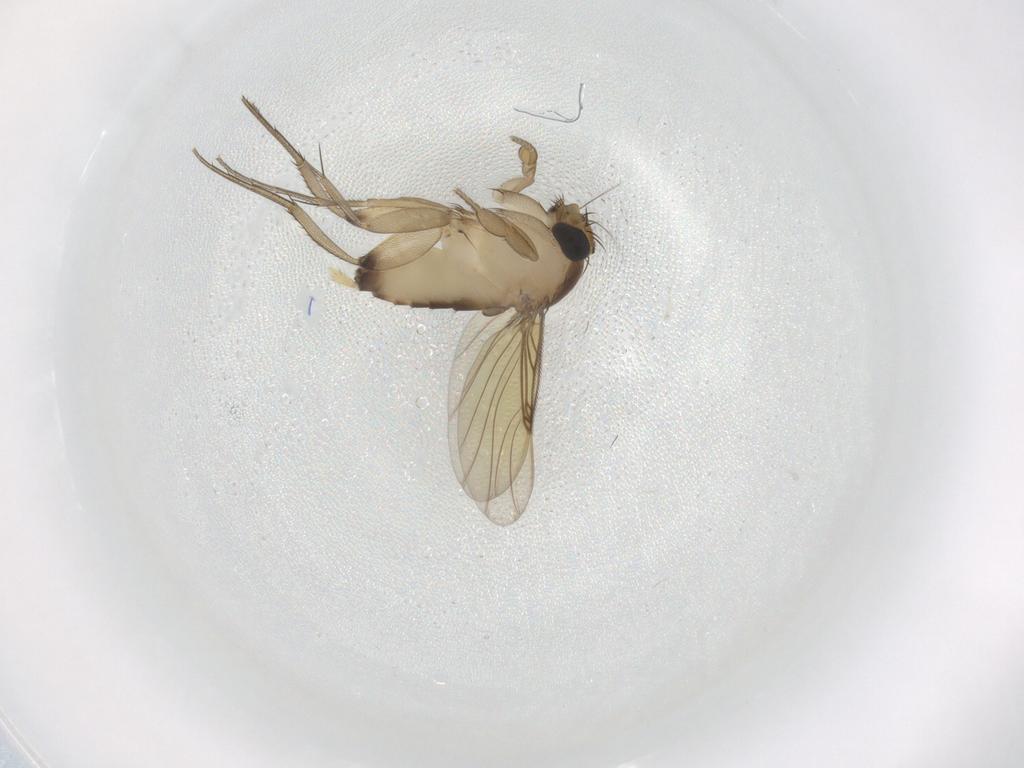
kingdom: Animalia
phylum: Arthropoda
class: Insecta
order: Diptera
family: Phoridae
